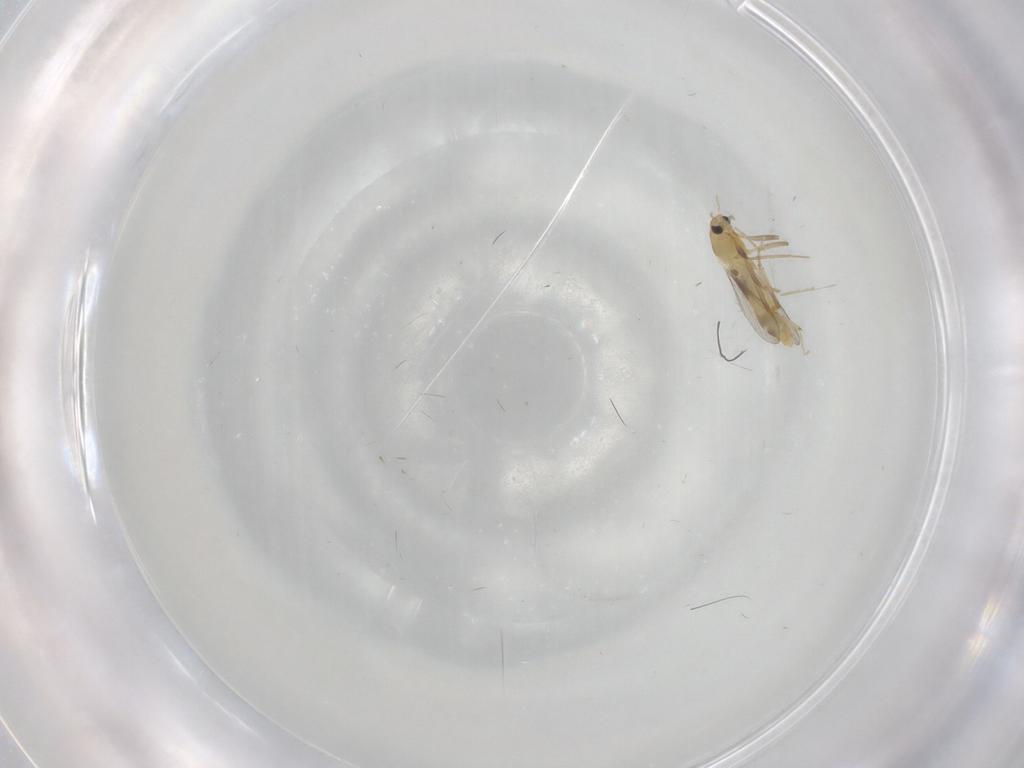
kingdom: Animalia
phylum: Arthropoda
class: Insecta
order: Diptera
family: Chironomidae
